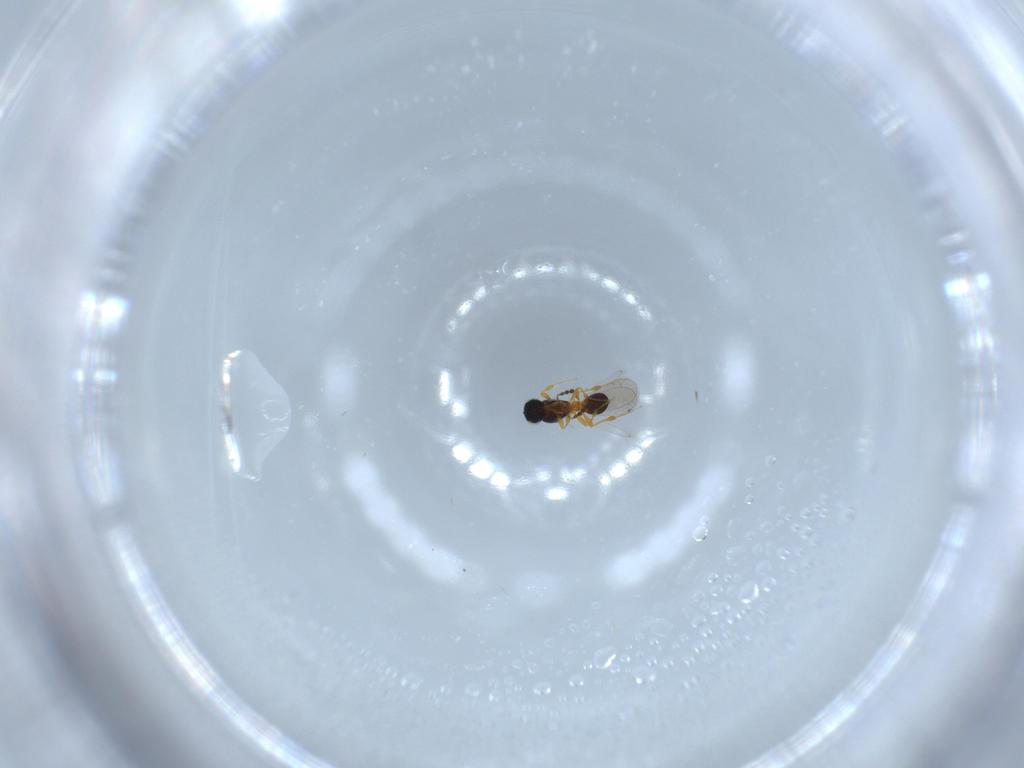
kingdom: Animalia
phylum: Arthropoda
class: Insecta
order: Hymenoptera
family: Platygastridae
